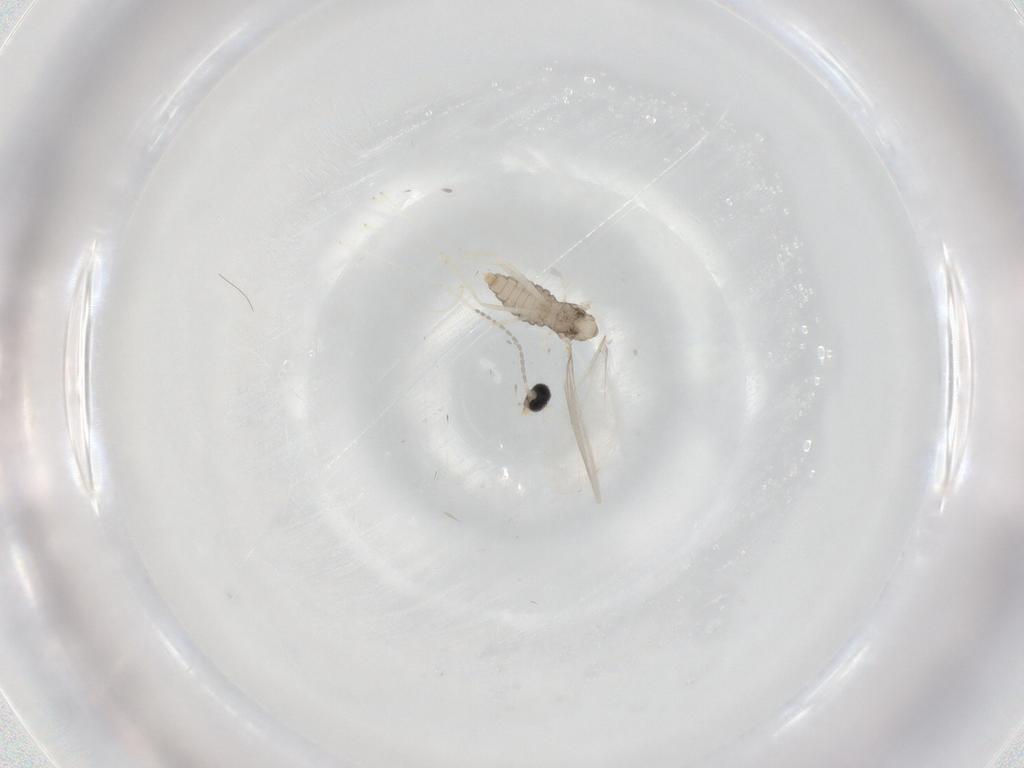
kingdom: Animalia
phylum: Arthropoda
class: Insecta
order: Diptera
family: Cecidomyiidae
